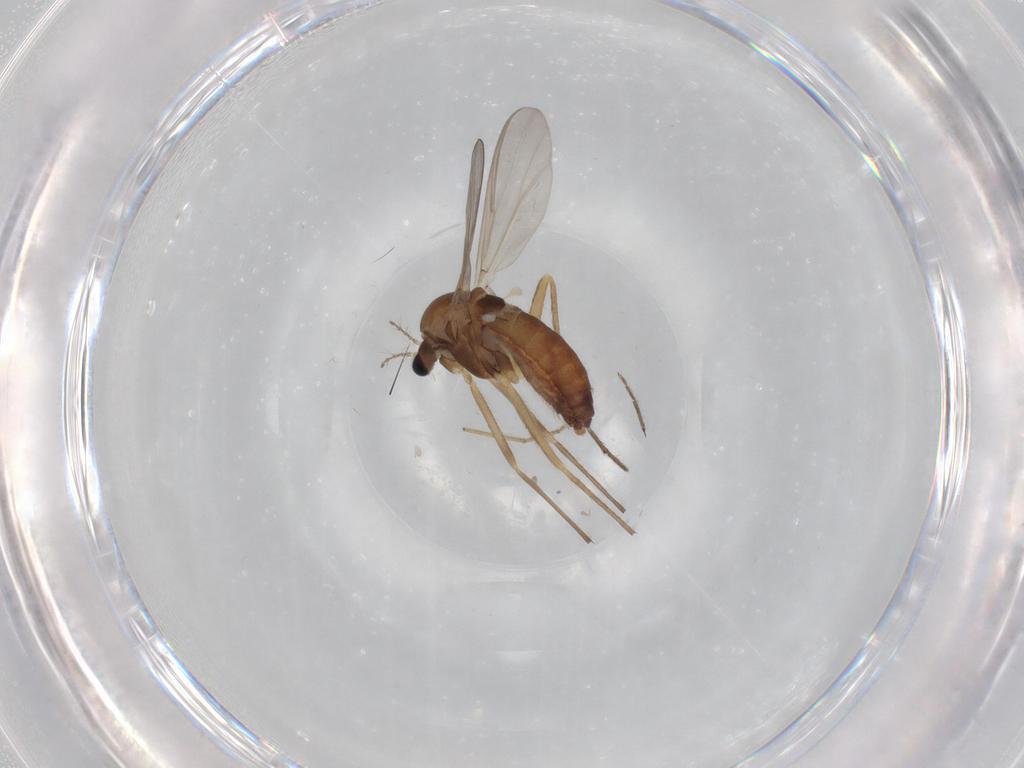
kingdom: Animalia
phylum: Arthropoda
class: Insecta
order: Diptera
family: Chironomidae
